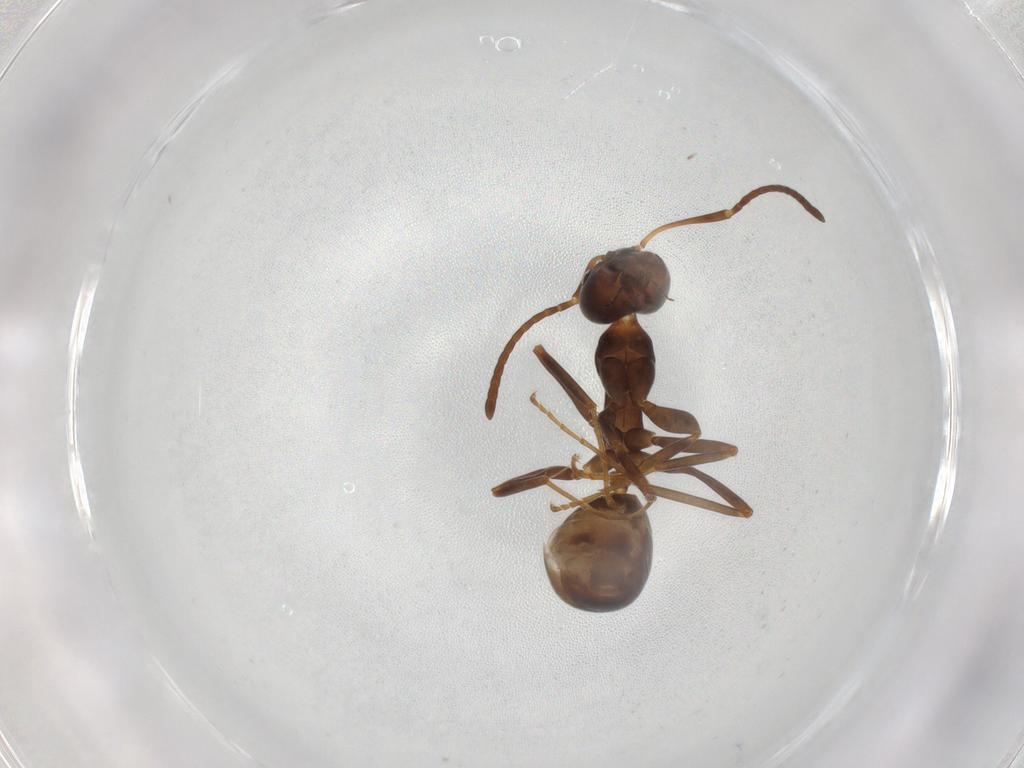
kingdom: Animalia
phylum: Arthropoda
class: Insecta
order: Hymenoptera
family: Formicidae
